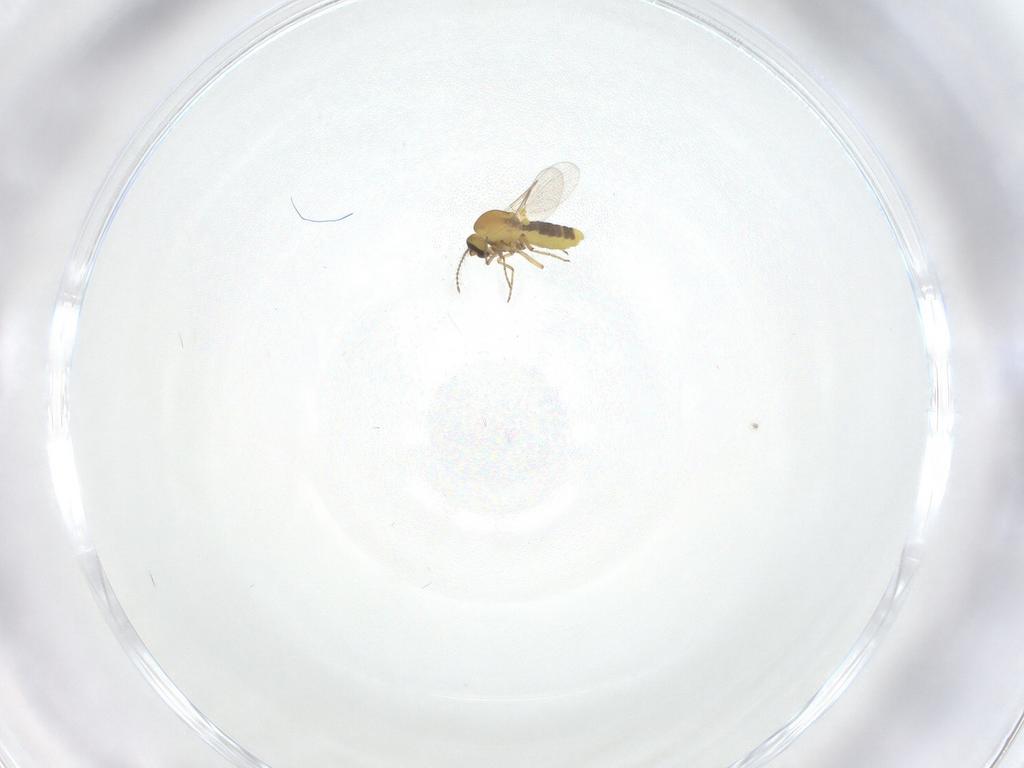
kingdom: Animalia
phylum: Arthropoda
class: Insecta
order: Diptera
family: Ceratopogonidae
